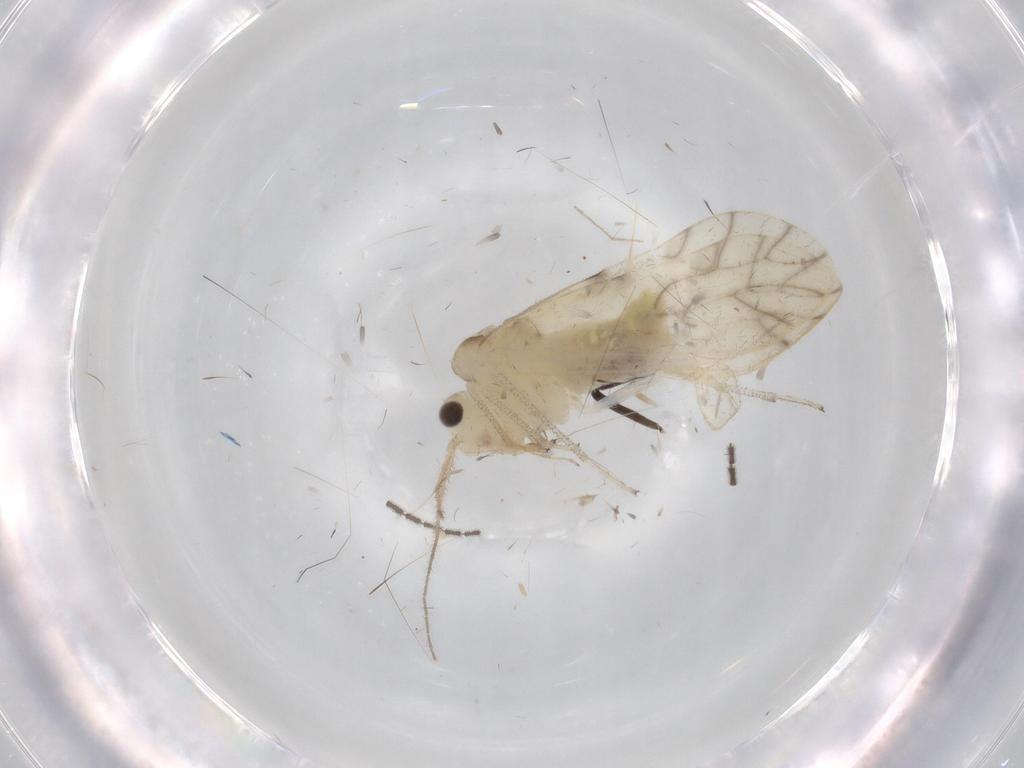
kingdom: Animalia
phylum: Arthropoda
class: Insecta
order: Psocodea
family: Caeciliusidae
